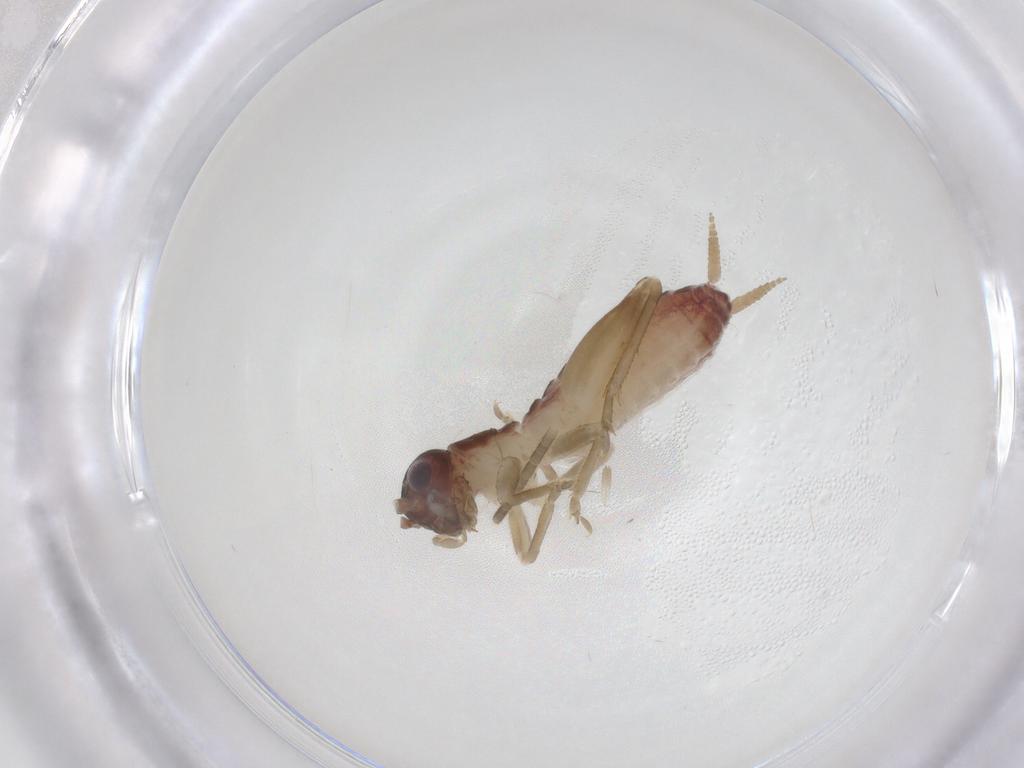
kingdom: Animalia
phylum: Arthropoda
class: Insecta
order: Orthoptera
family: Gryllidae
